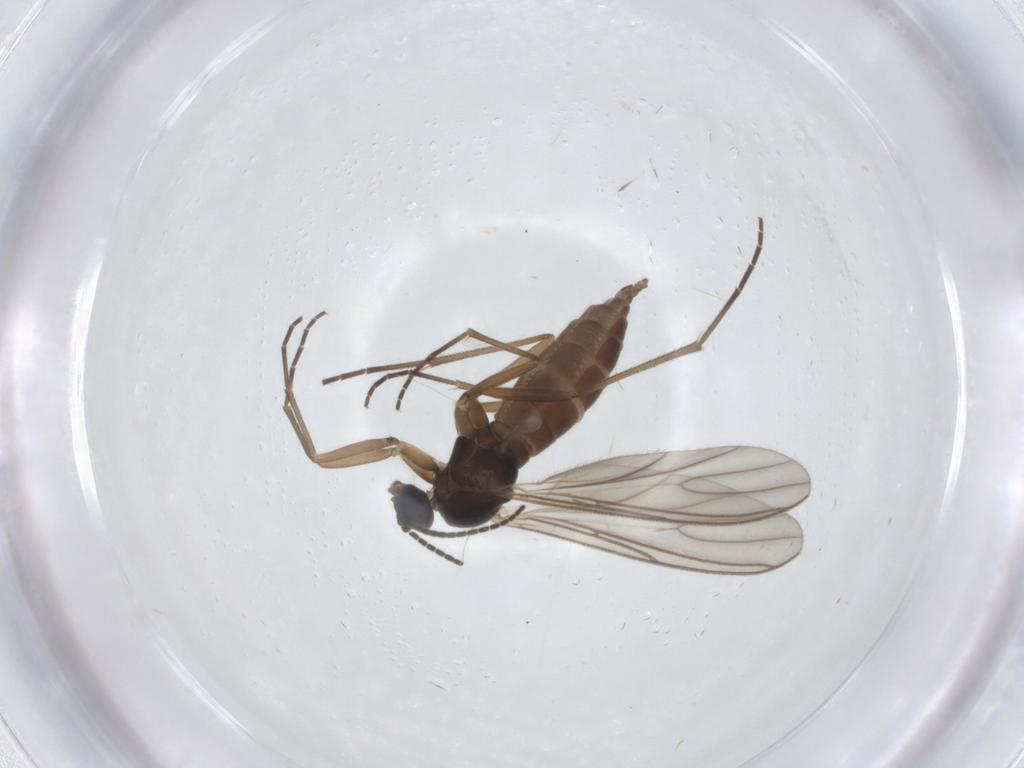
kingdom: Animalia
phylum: Arthropoda
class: Insecta
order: Diptera
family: Sciaridae
